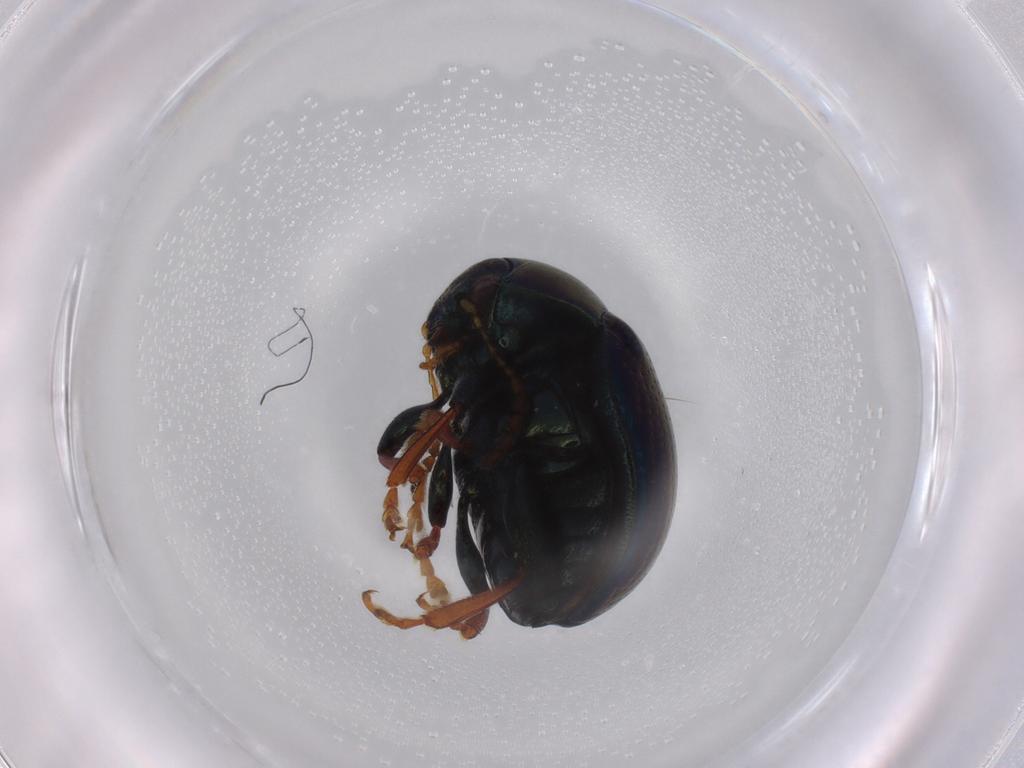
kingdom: Animalia
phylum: Arthropoda
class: Insecta
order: Coleoptera
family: Chrysomelidae
